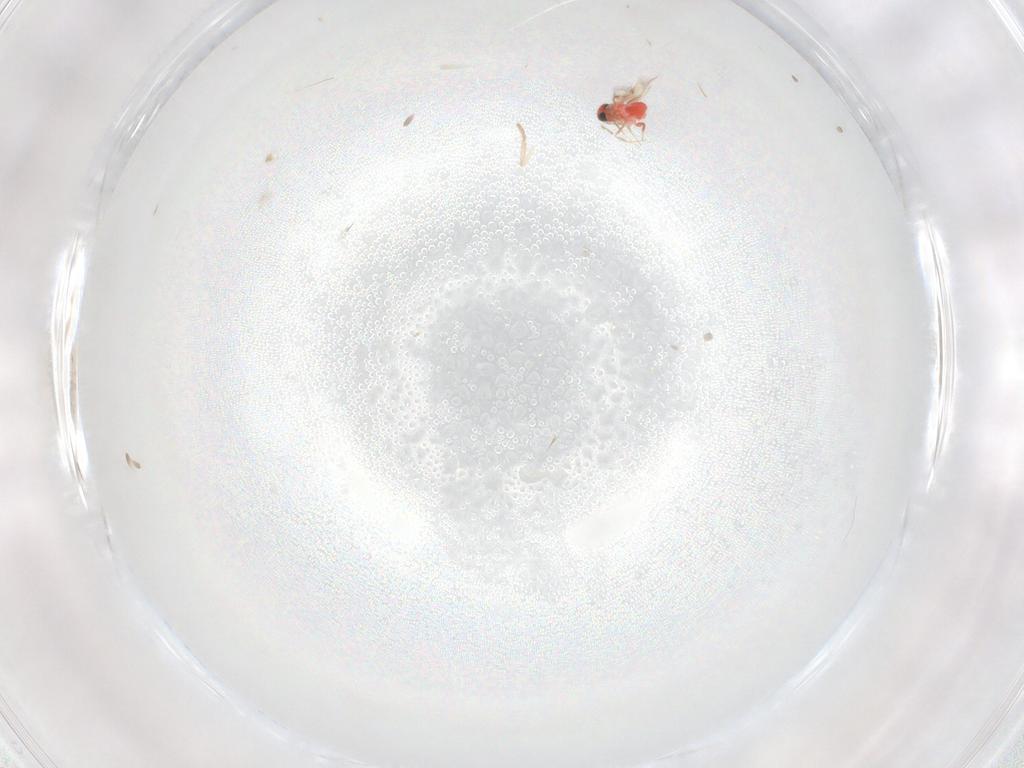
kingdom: Animalia
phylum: Arthropoda
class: Insecta
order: Hymenoptera
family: Trichogrammatidae
